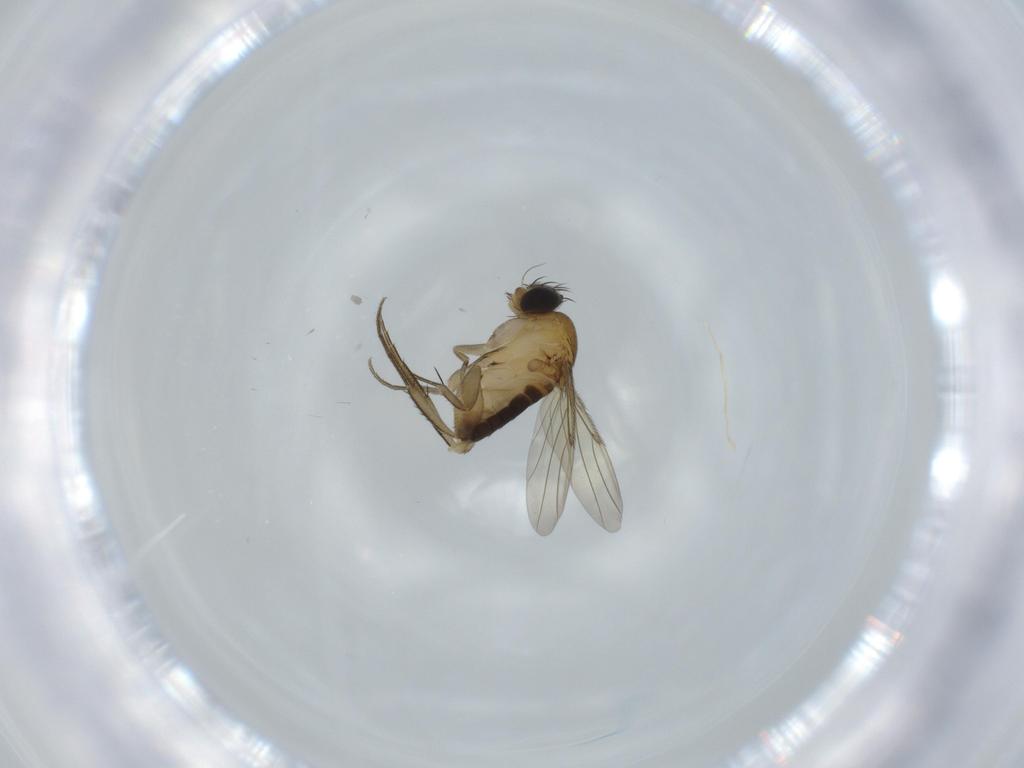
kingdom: Animalia
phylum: Arthropoda
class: Insecta
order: Diptera
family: Phoridae
